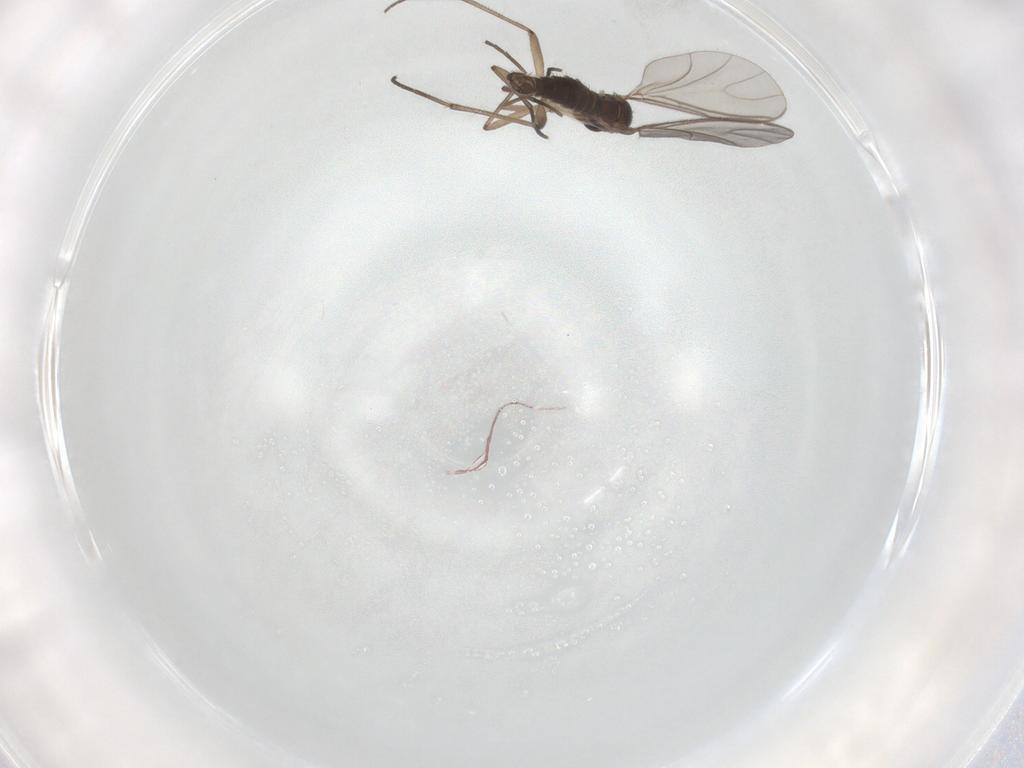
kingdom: Animalia
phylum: Arthropoda
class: Insecta
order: Diptera
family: Sciaridae
